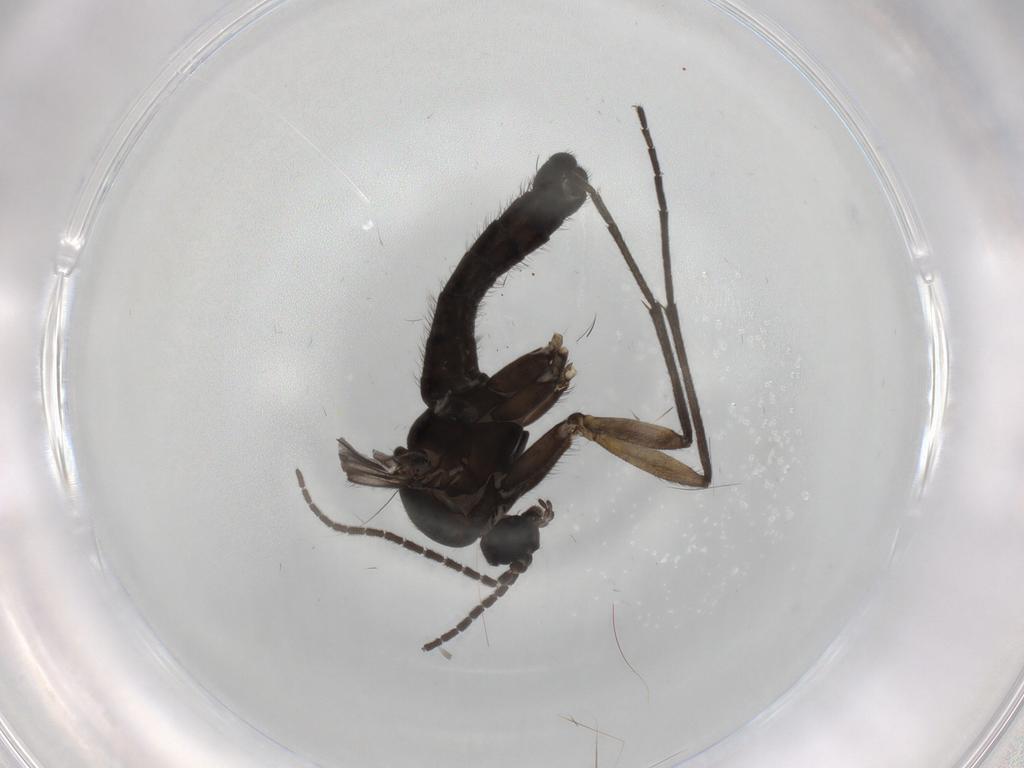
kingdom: Animalia
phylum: Arthropoda
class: Insecta
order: Diptera
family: Sciaridae
